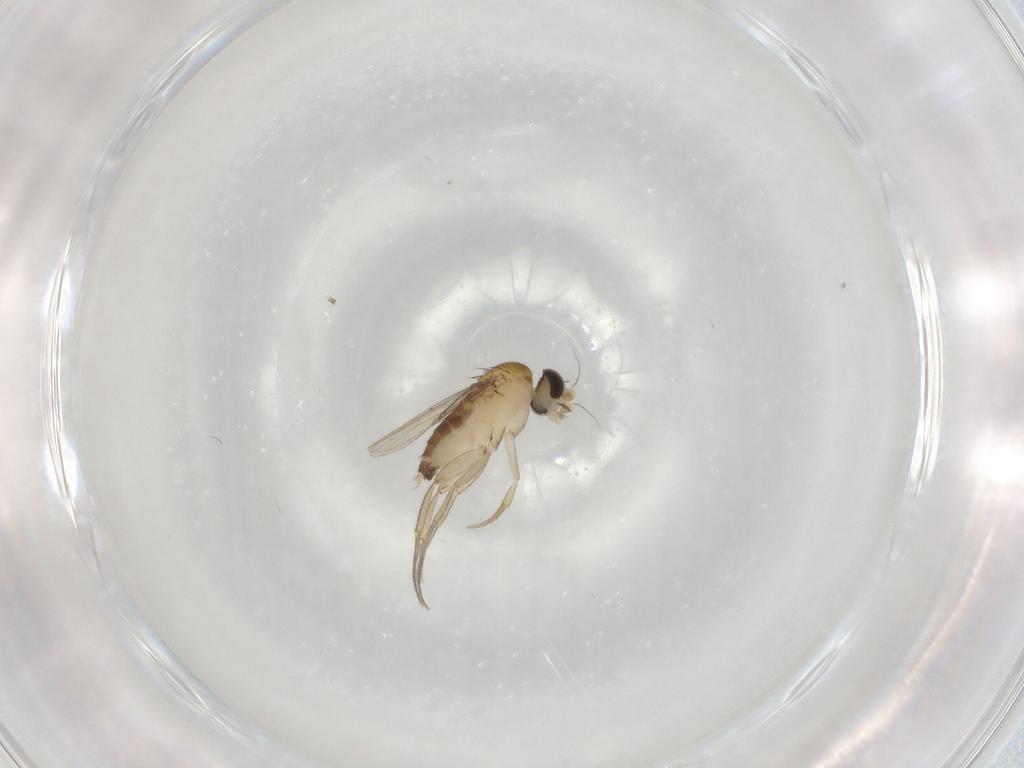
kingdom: Animalia
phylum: Arthropoda
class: Insecta
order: Diptera
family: Phoridae
